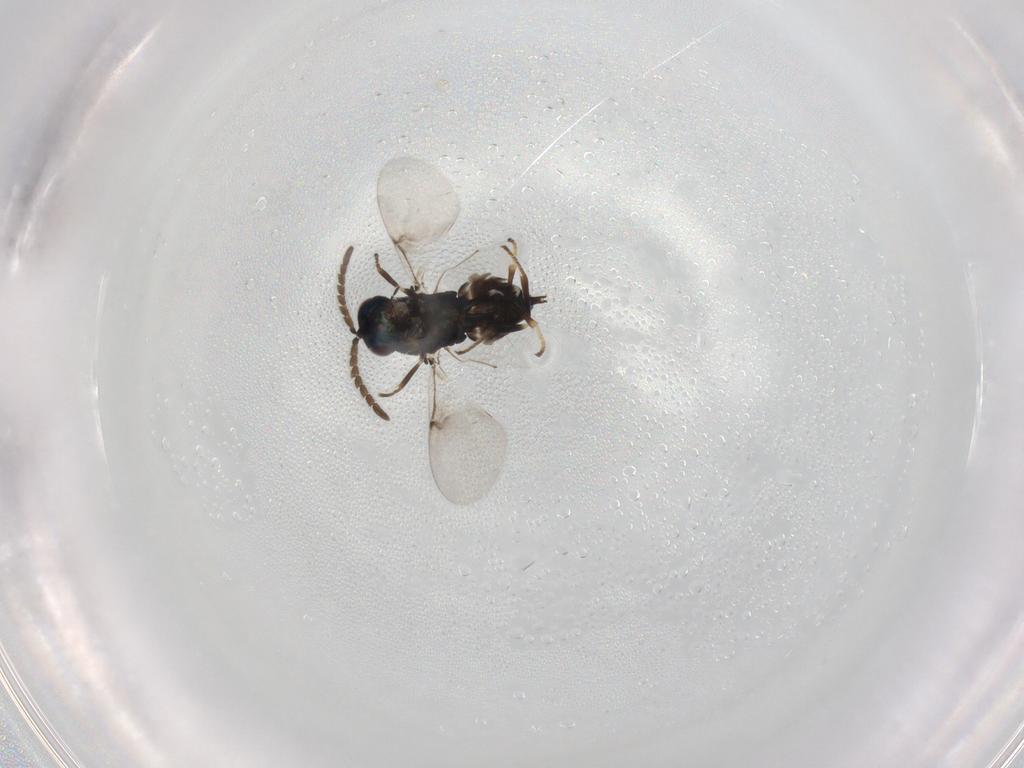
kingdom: Animalia
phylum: Arthropoda
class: Insecta
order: Hymenoptera
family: Encyrtidae
